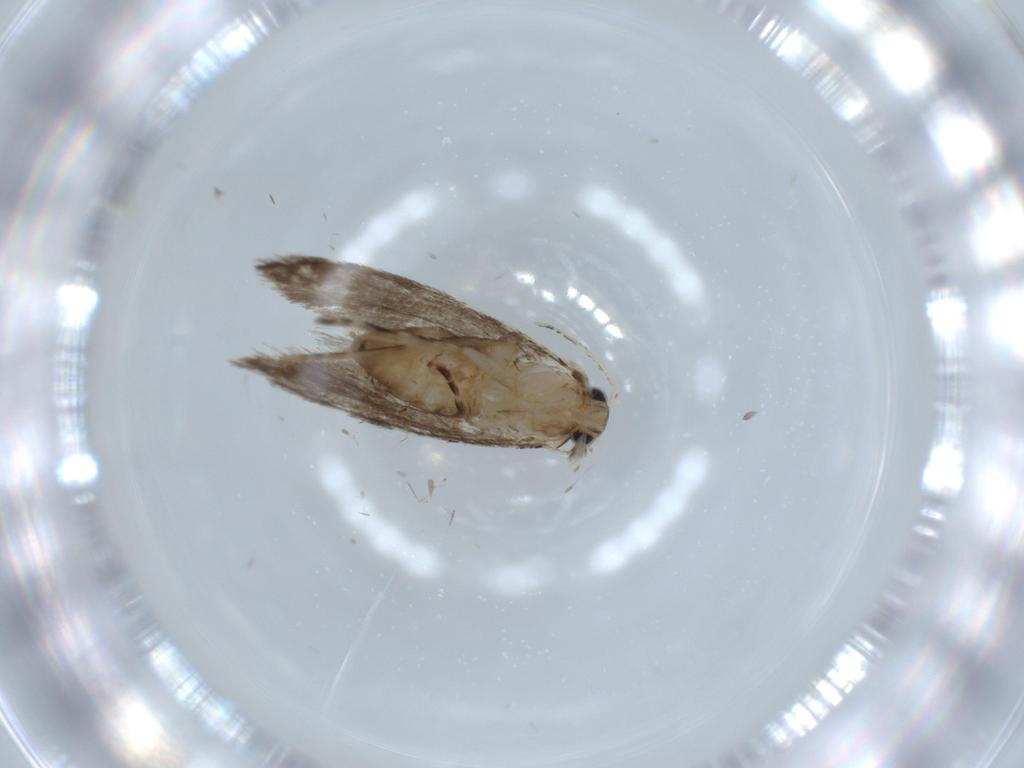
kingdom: Animalia
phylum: Arthropoda
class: Insecta
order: Lepidoptera
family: Tineidae
